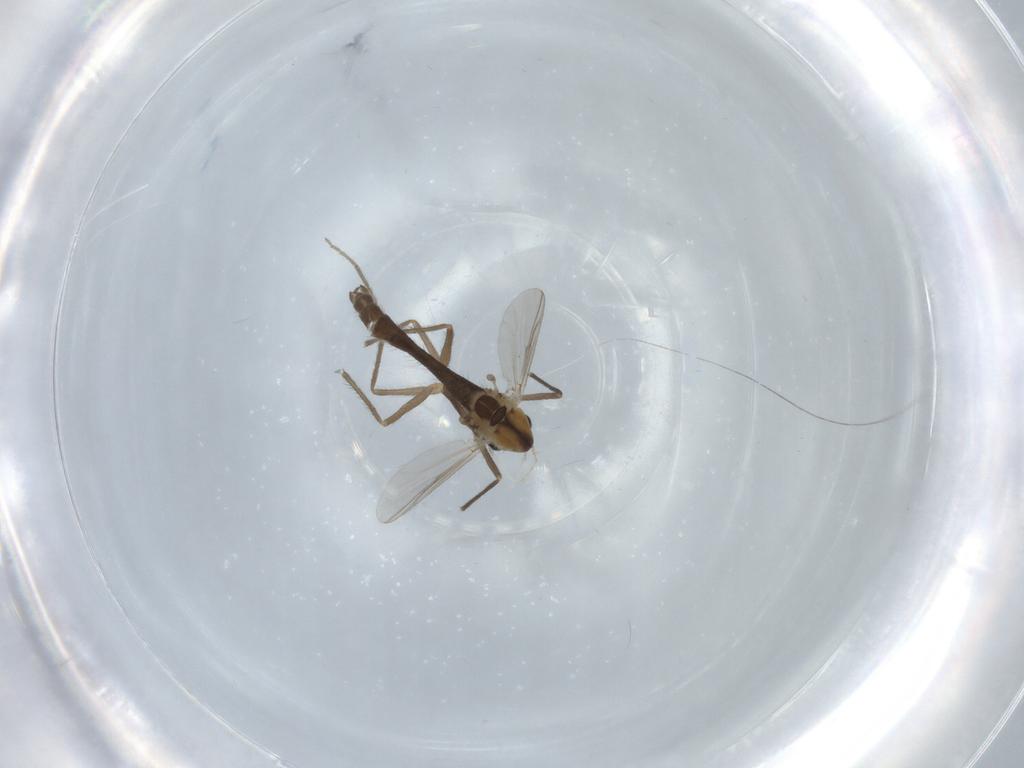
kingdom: Animalia
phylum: Arthropoda
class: Insecta
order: Diptera
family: Chironomidae
